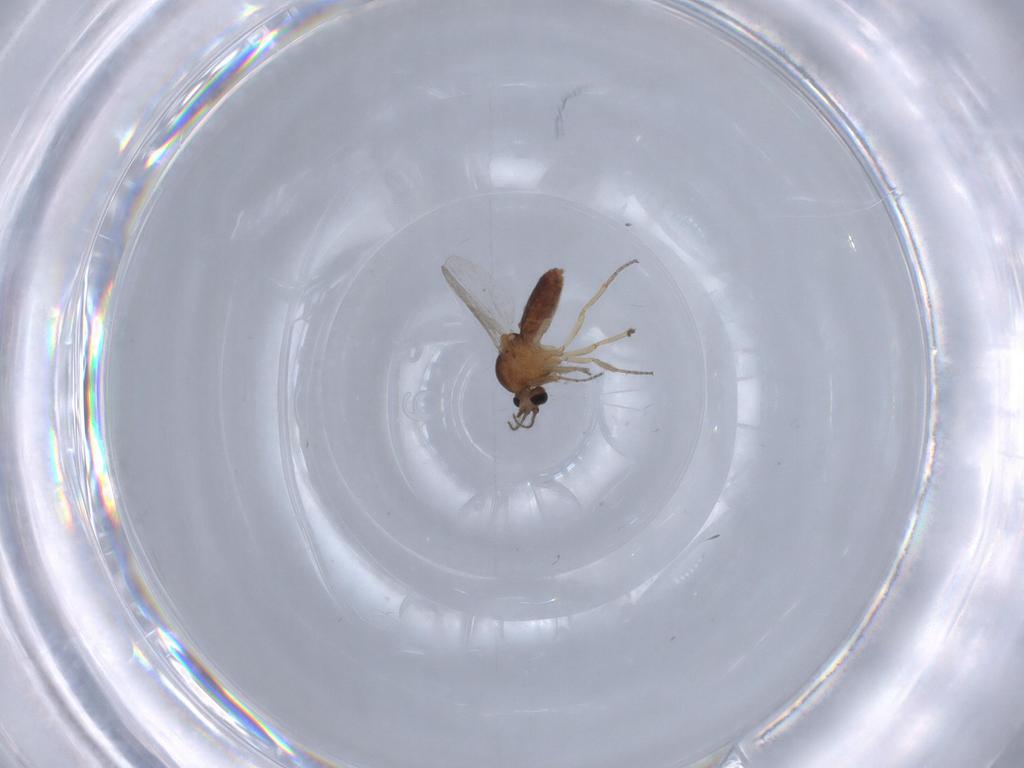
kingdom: Animalia
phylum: Arthropoda
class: Insecta
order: Diptera
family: Ceratopogonidae
